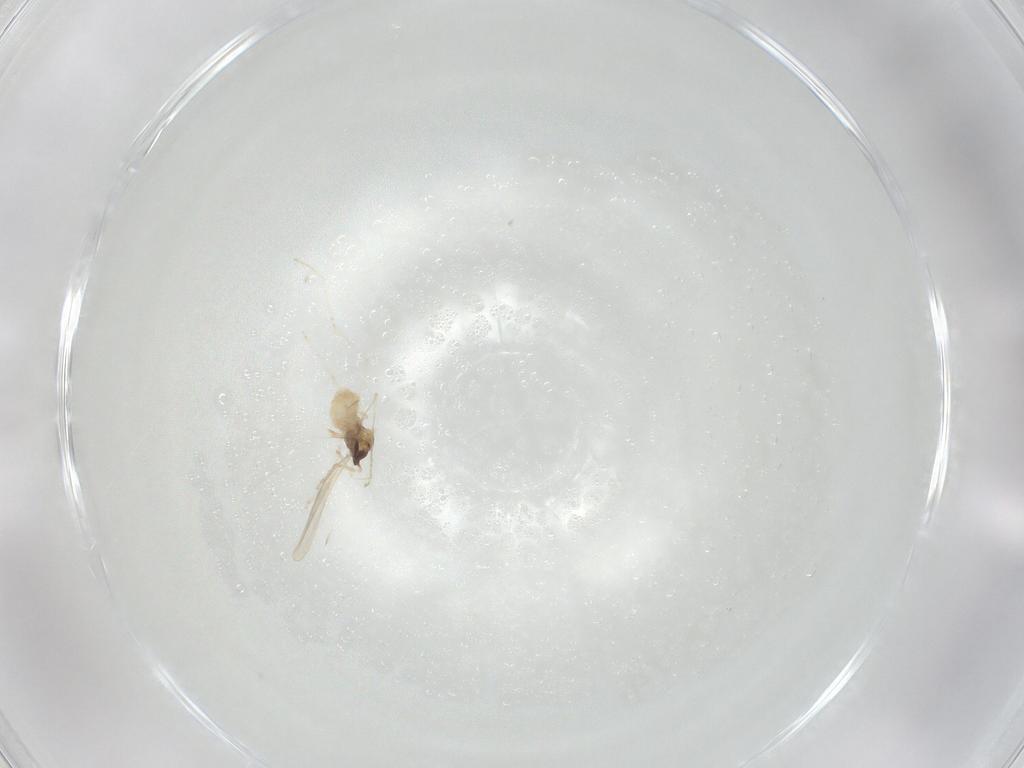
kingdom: Animalia
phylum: Arthropoda
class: Insecta
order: Diptera
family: Cecidomyiidae
